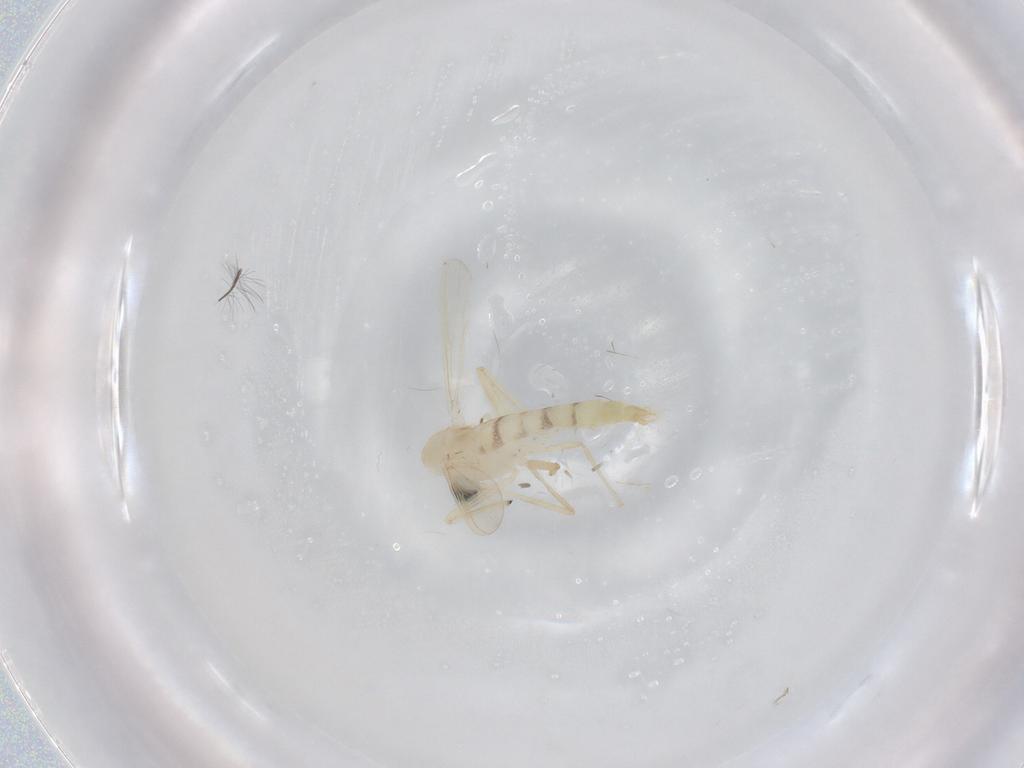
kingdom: Animalia
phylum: Arthropoda
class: Insecta
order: Diptera
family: Chironomidae
